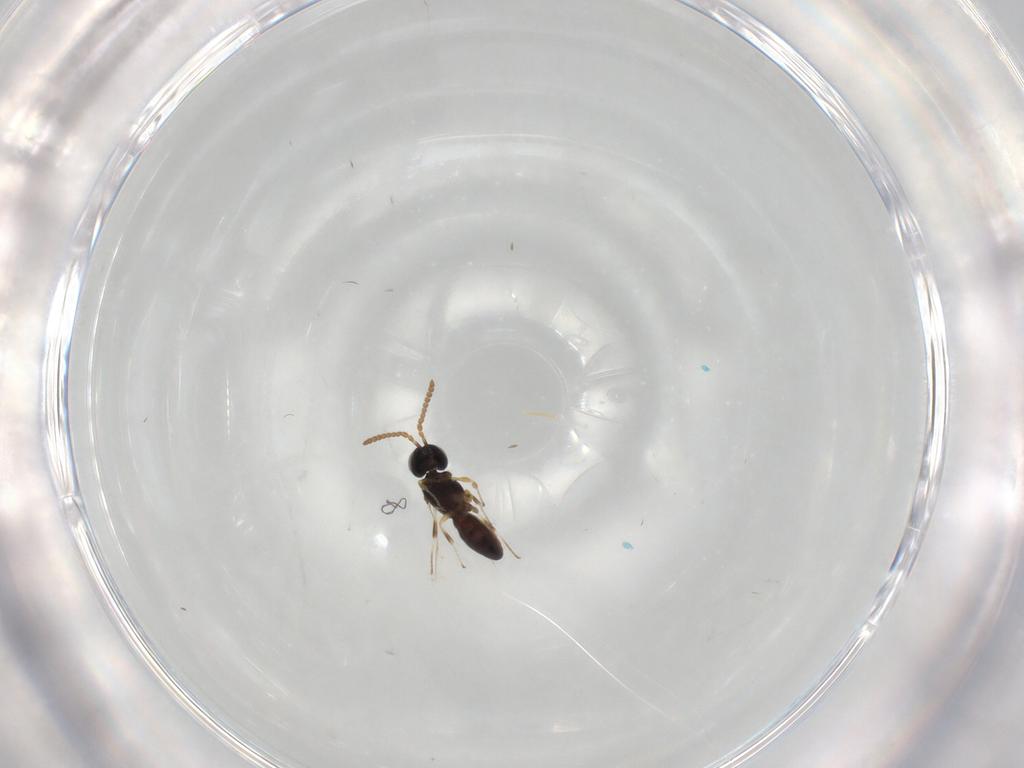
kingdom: Animalia
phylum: Arthropoda
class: Insecta
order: Hymenoptera
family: Scelionidae
